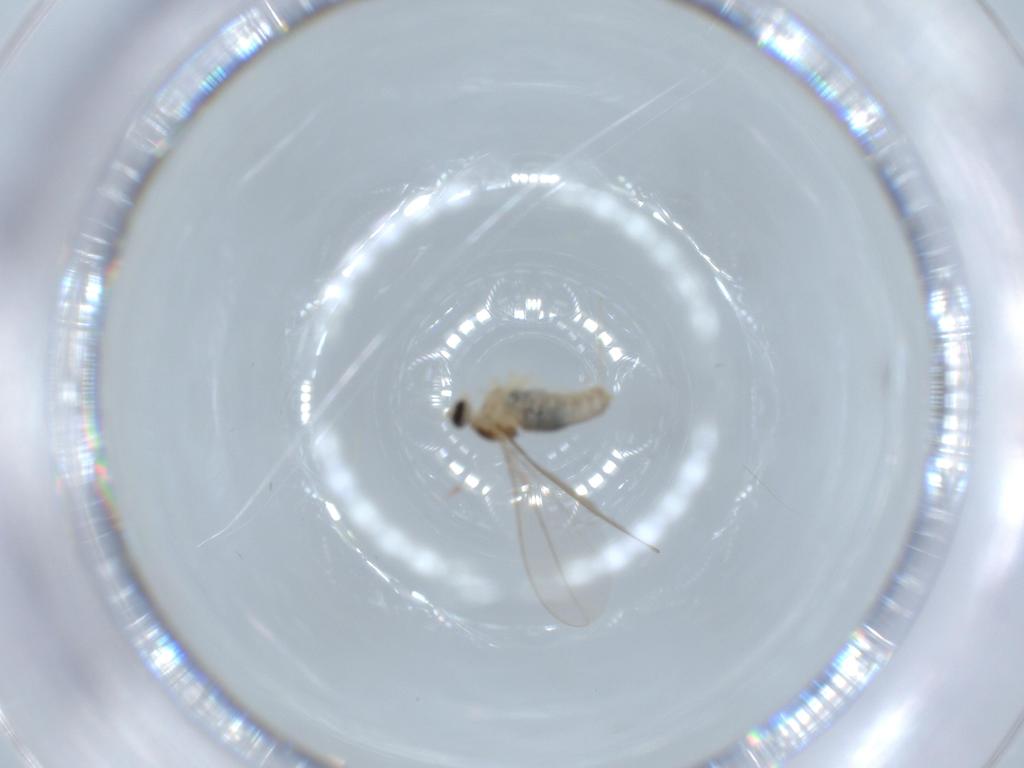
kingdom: Animalia
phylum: Arthropoda
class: Insecta
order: Diptera
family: Cecidomyiidae
